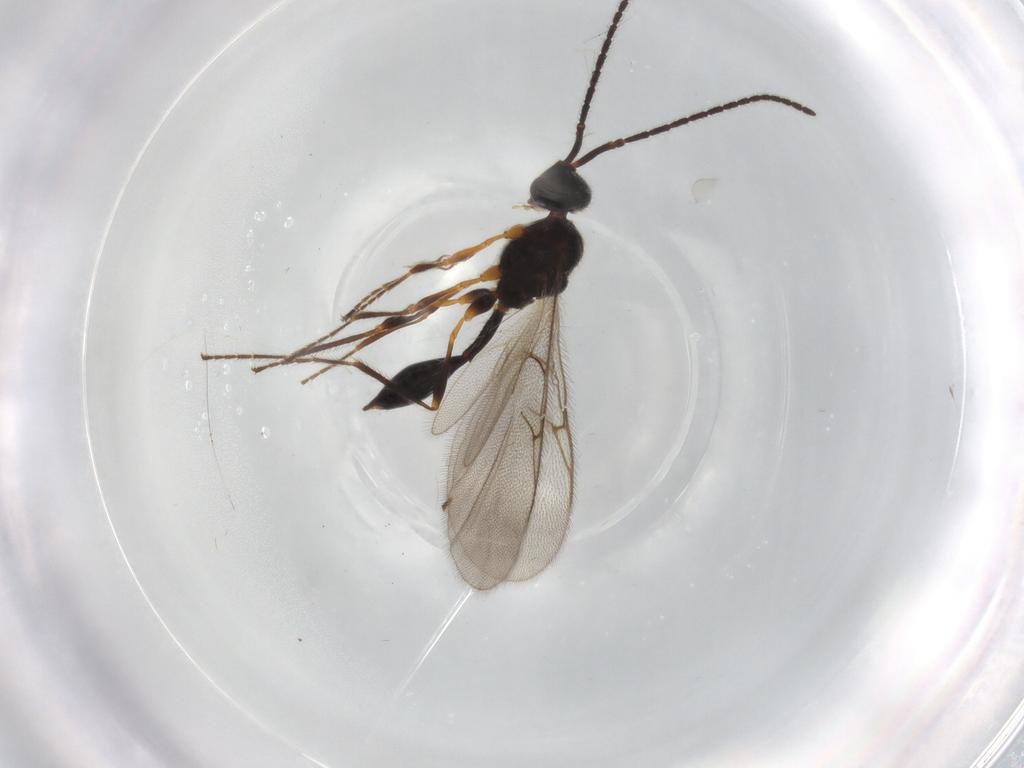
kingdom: Animalia
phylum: Arthropoda
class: Insecta
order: Hymenoptera
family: Diapriidae
